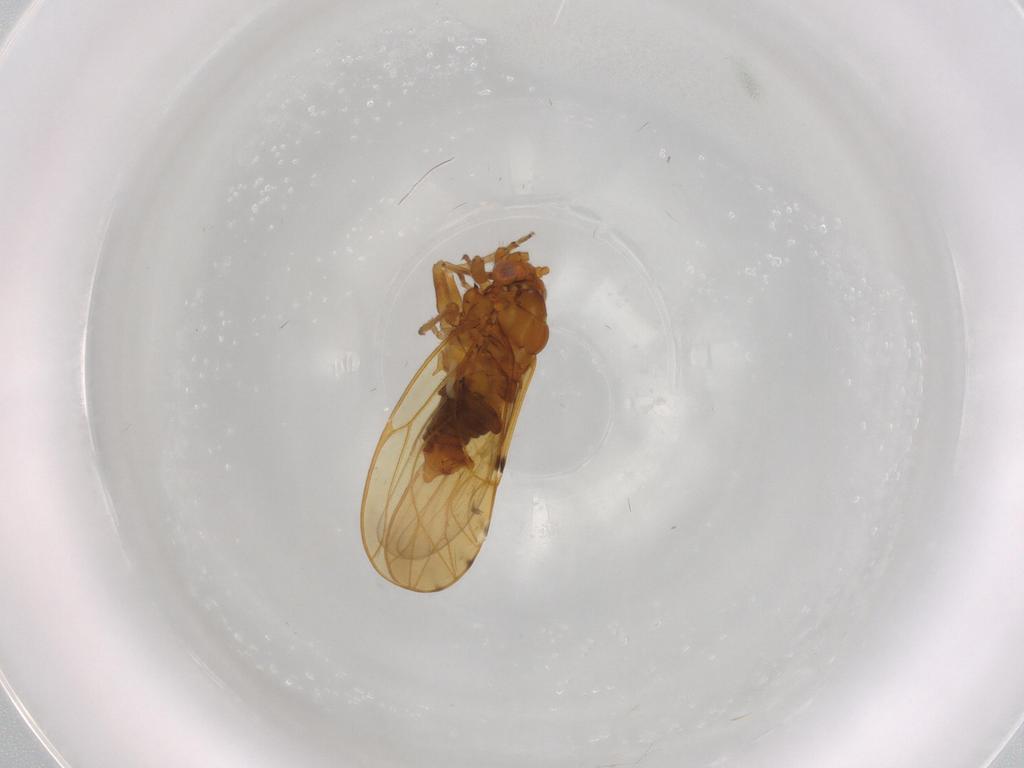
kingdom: Animalia
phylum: Arthropoda
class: Insecta
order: Hemiptera
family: Psylloidea_incertae_sedis
